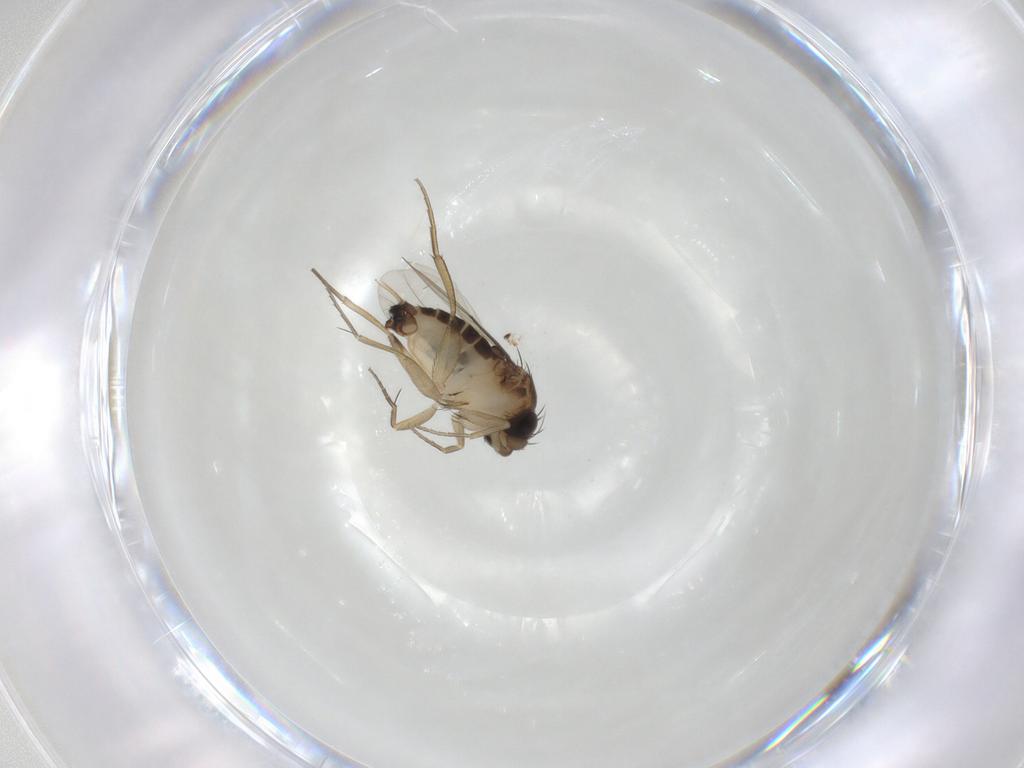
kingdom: Animalia
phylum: Arthropoda
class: Insecta
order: Diptera
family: Phoridae
